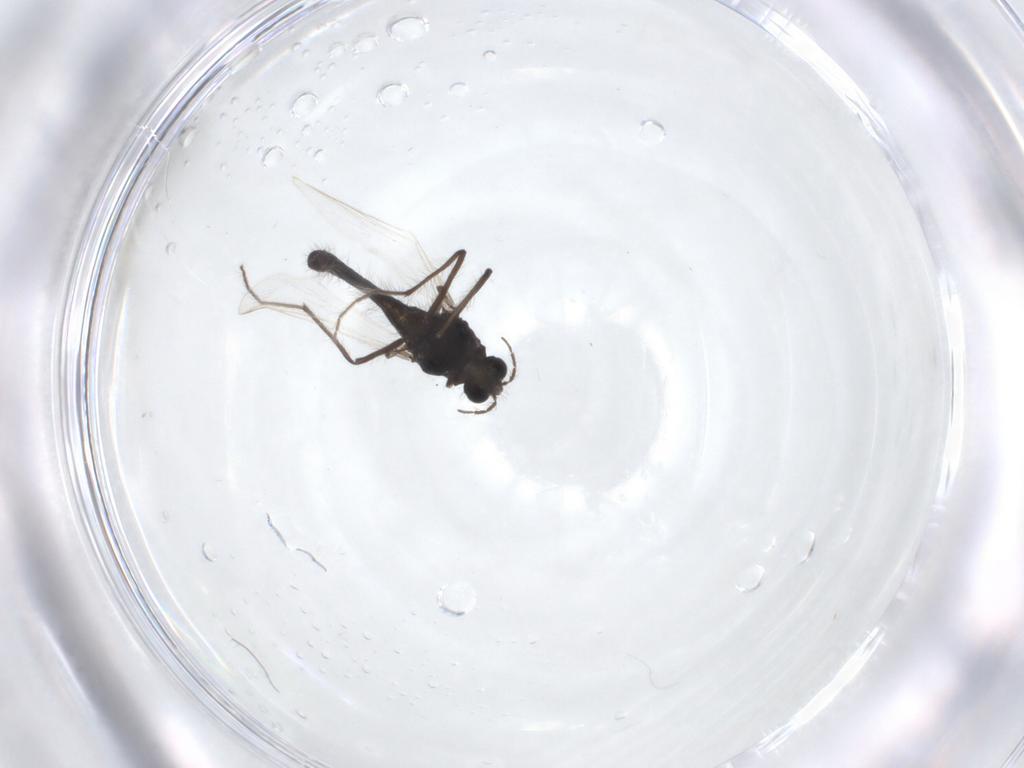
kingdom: Animalia
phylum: Arthropoda
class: Insecta
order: Diptera
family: Chironomidae
